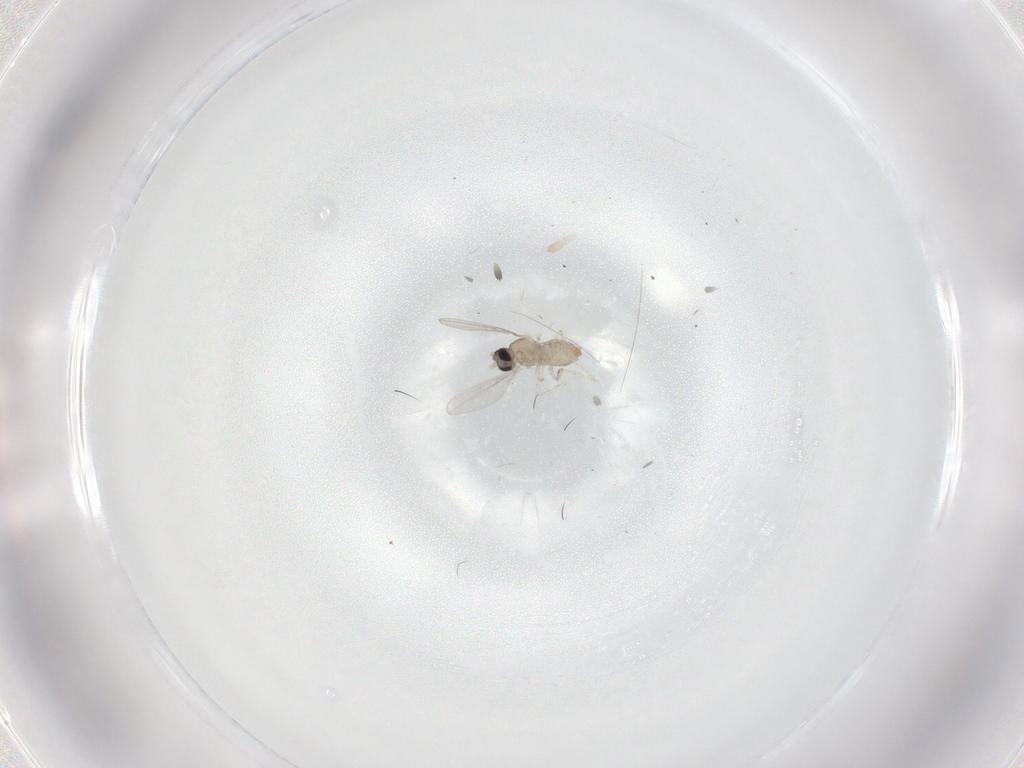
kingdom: Animalia
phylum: Arthropoda
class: Insecta
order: Diptera
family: Cecidomyiidae
